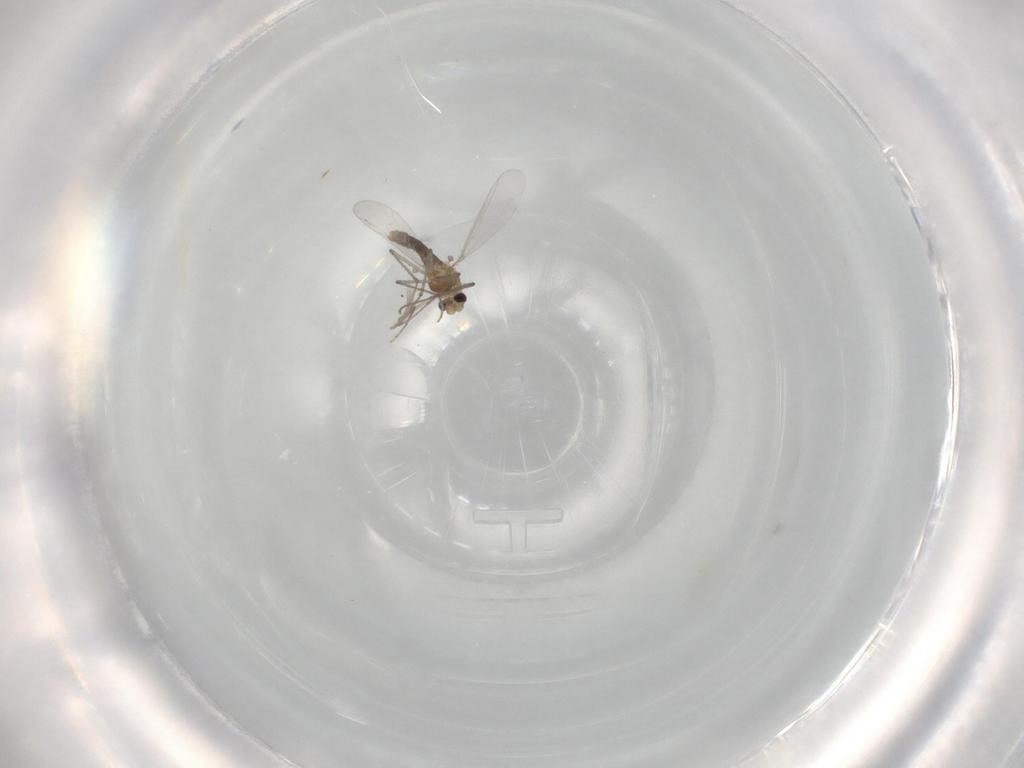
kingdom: Animalia
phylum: Arthropoda
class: Insecta
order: Diptera
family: Chironomidae
